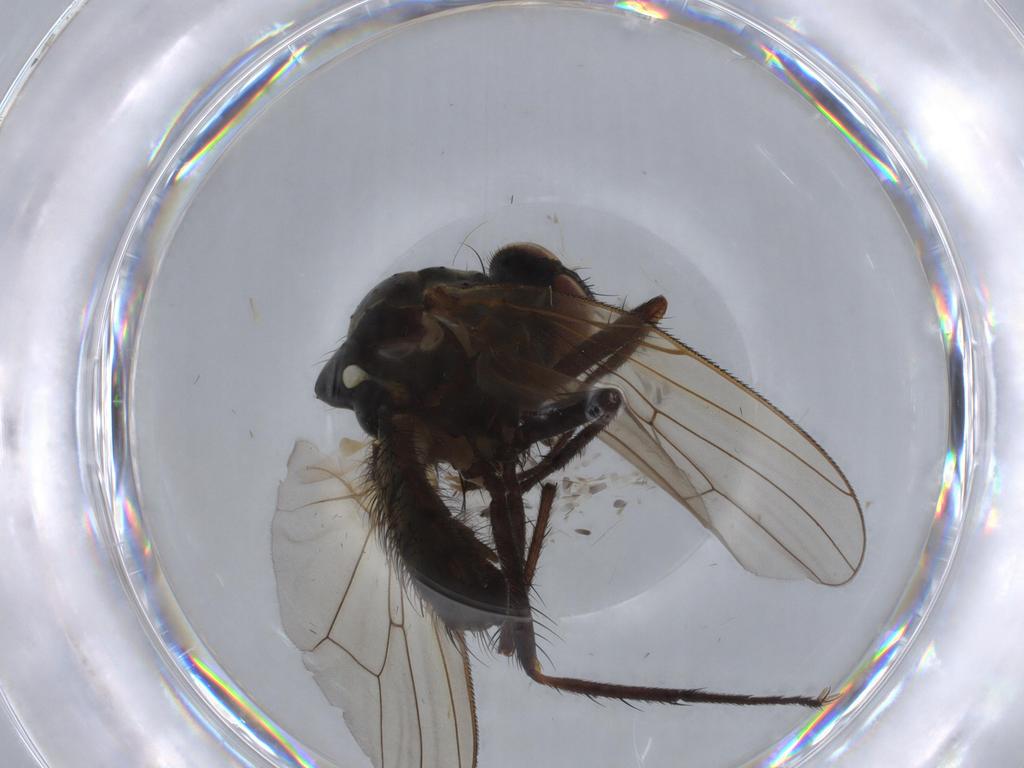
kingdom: Animalia
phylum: Arthropoda
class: Insecta
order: Diptera
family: Anthomyiidae
